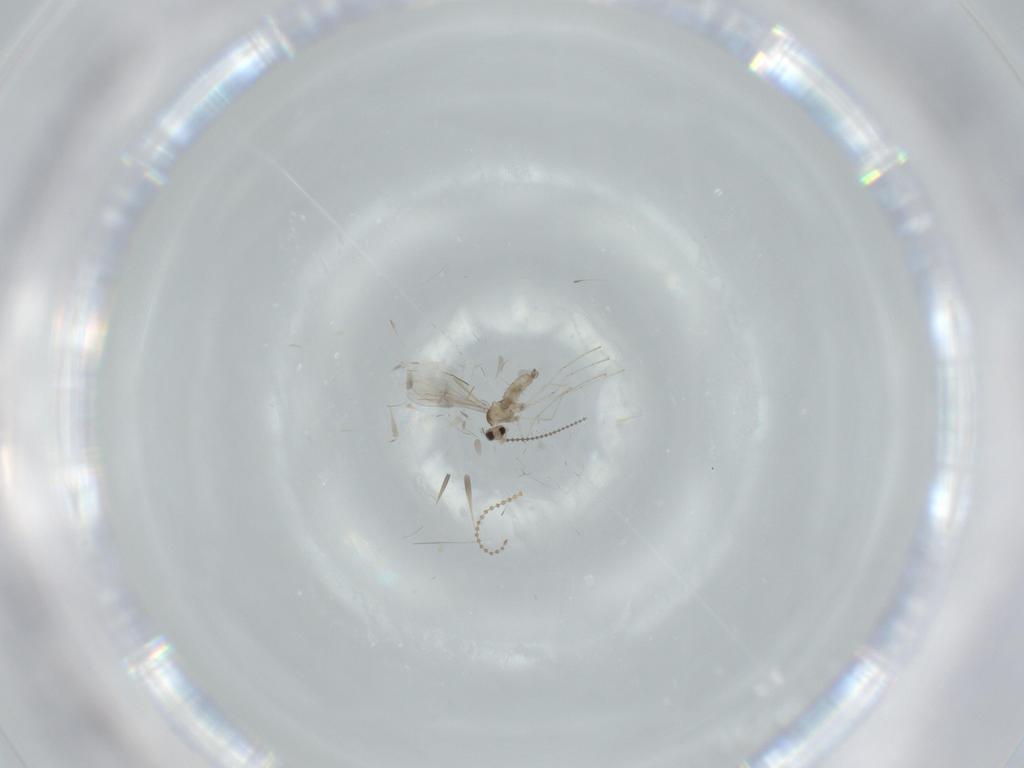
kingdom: Animalia
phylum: Arthropoda
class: Insecta
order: Diptera
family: Cecidomyiidae
